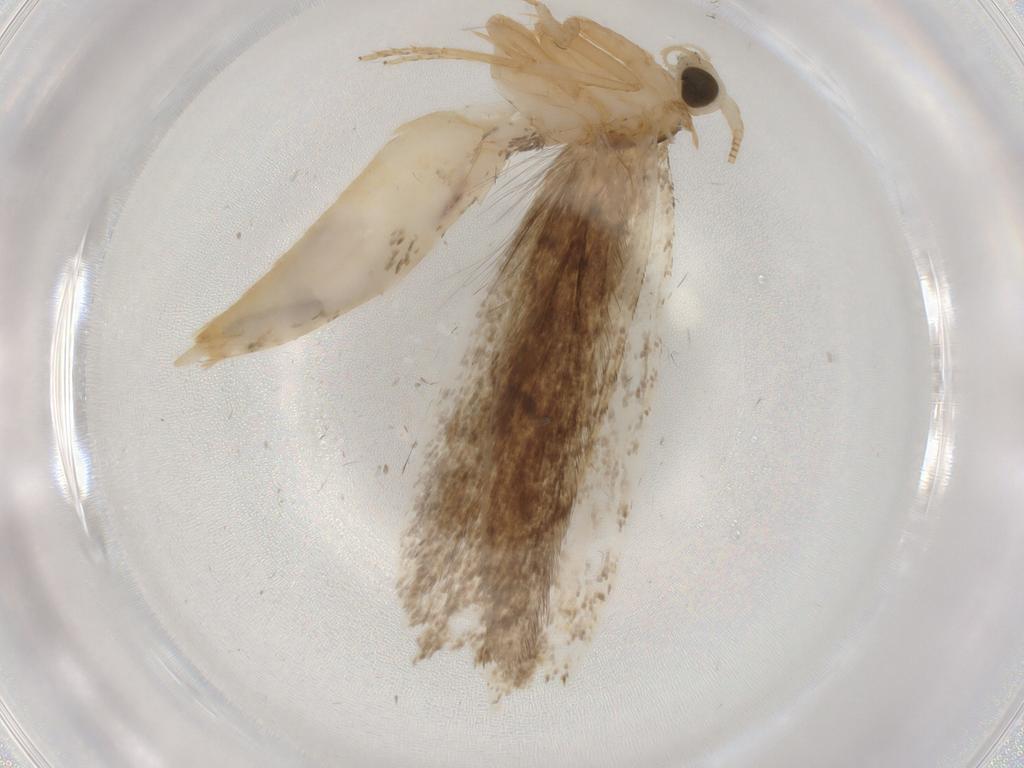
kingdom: Animalia
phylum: Arthropoda
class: Insecta
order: Lepidoptera
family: Nepticulidae
